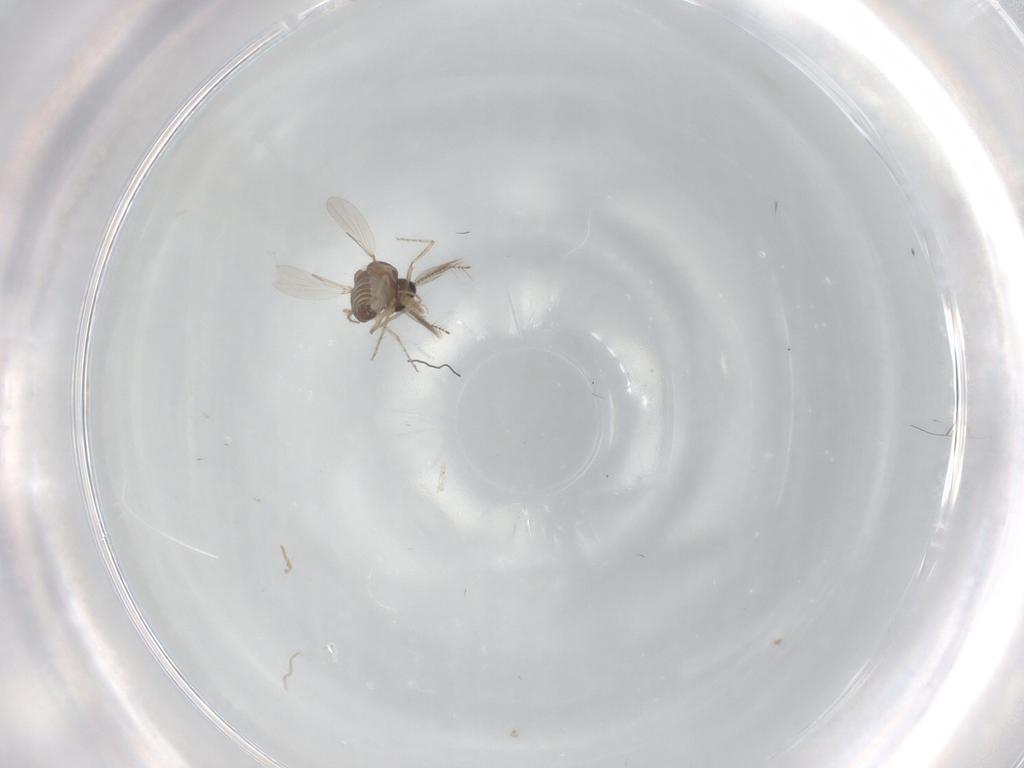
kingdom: Animalia
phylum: Arthropoda
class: Insecta
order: Diptera
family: Ceratopogonidae
